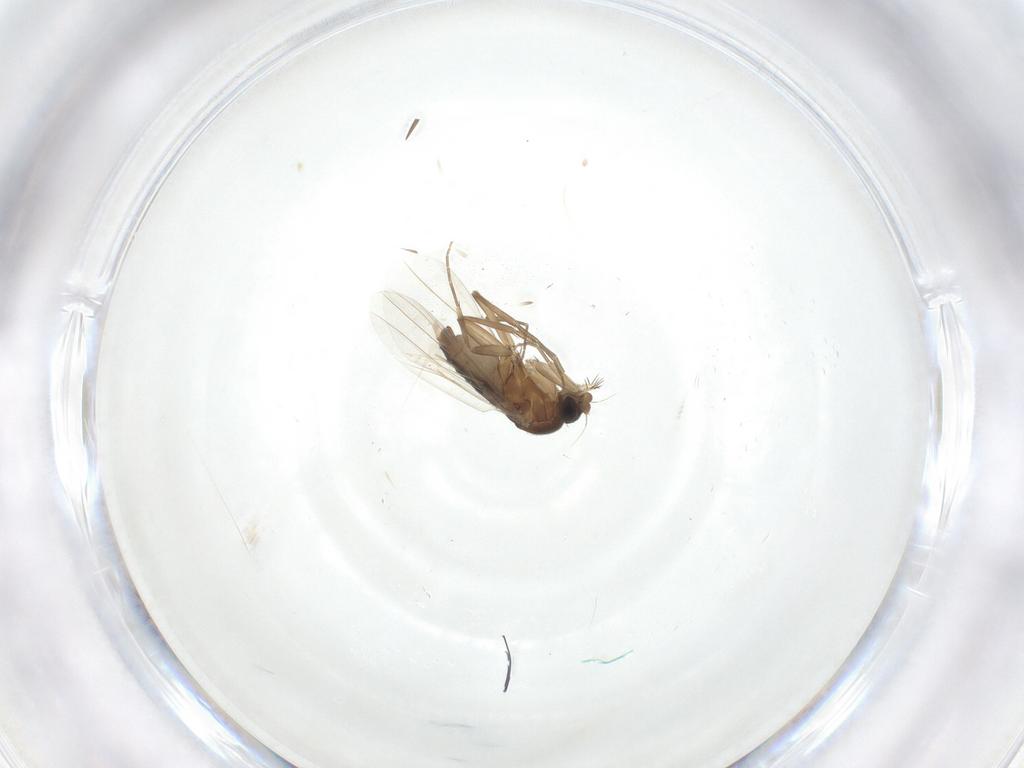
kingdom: Animalia
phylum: Arthropoda
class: Insecta
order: Diptera
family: Phoridae
